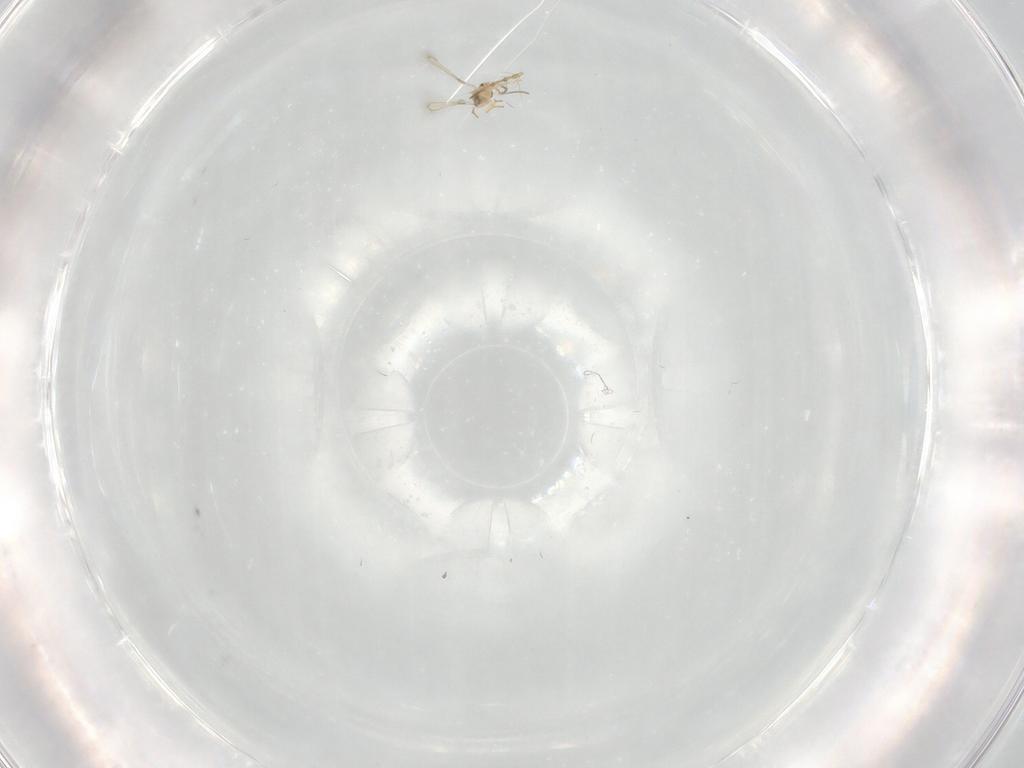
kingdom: Animalia
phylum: Arthropoda
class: Insecta
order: Hymenoptera
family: Mymaridae
